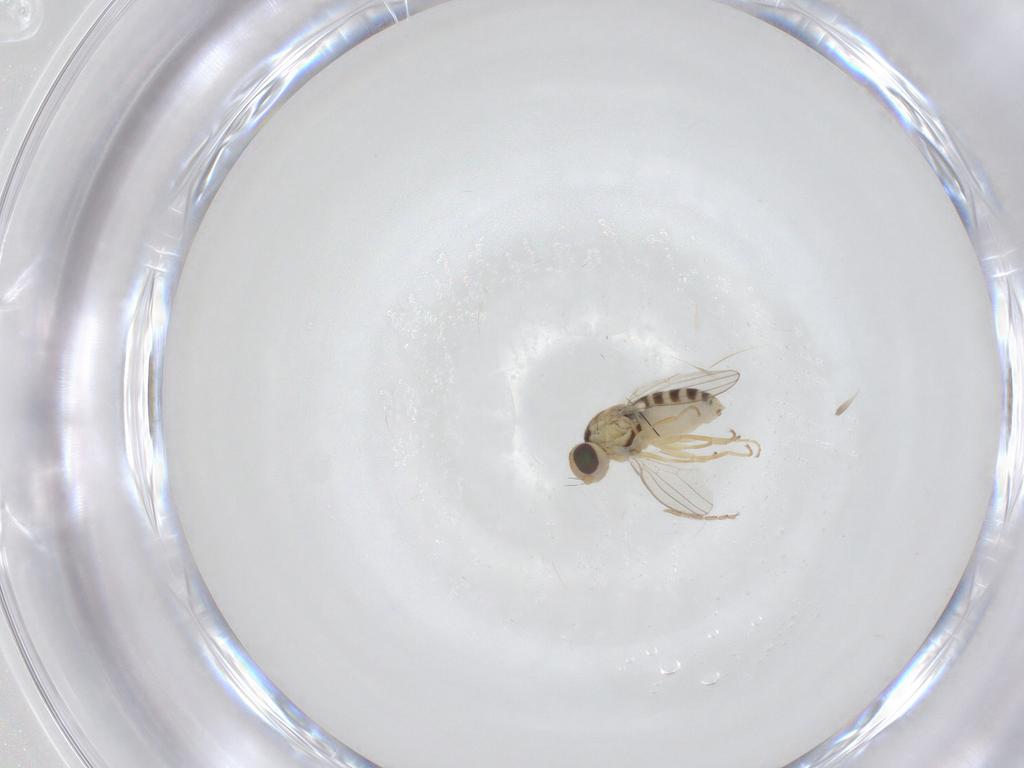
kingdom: Animalia
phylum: Arthropoda
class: Insecta
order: Diptera
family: Chyromyidae
